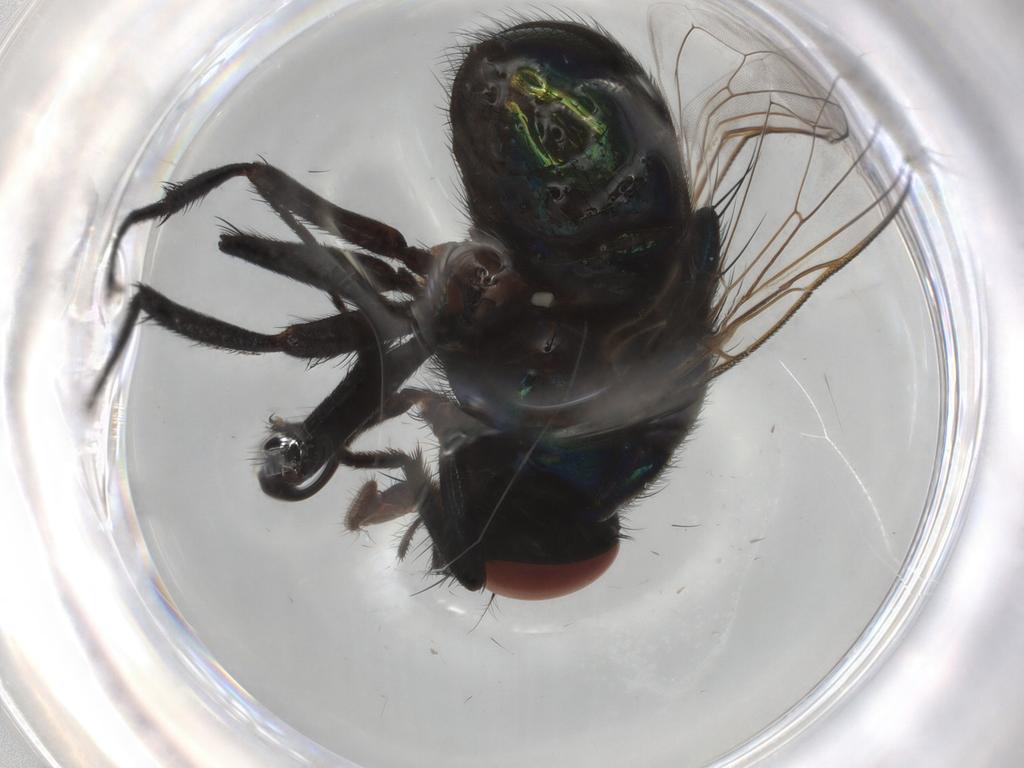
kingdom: Animalia
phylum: Arthropoda
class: Insecta
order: Diptera
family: Muscidae
